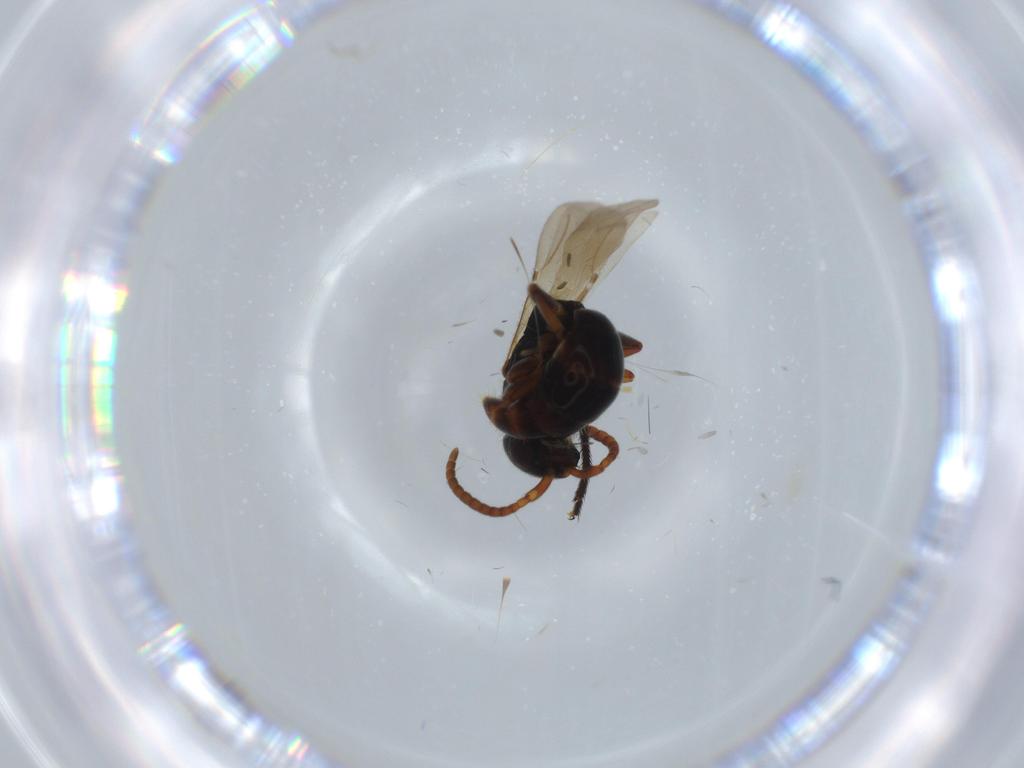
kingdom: Animalia
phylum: Arthropoda
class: Insecta
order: Hymenoptera
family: Bethylidae
